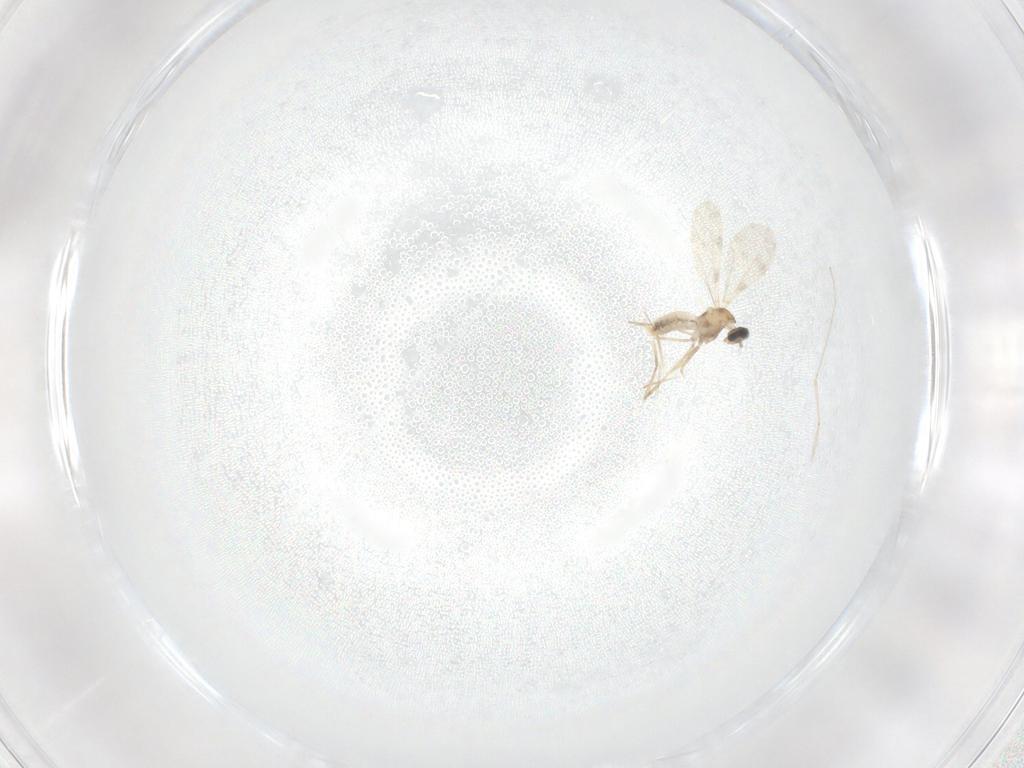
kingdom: Animalia
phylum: Arthropoda
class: Insecta
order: Diptera
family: Cecidomyiidae
